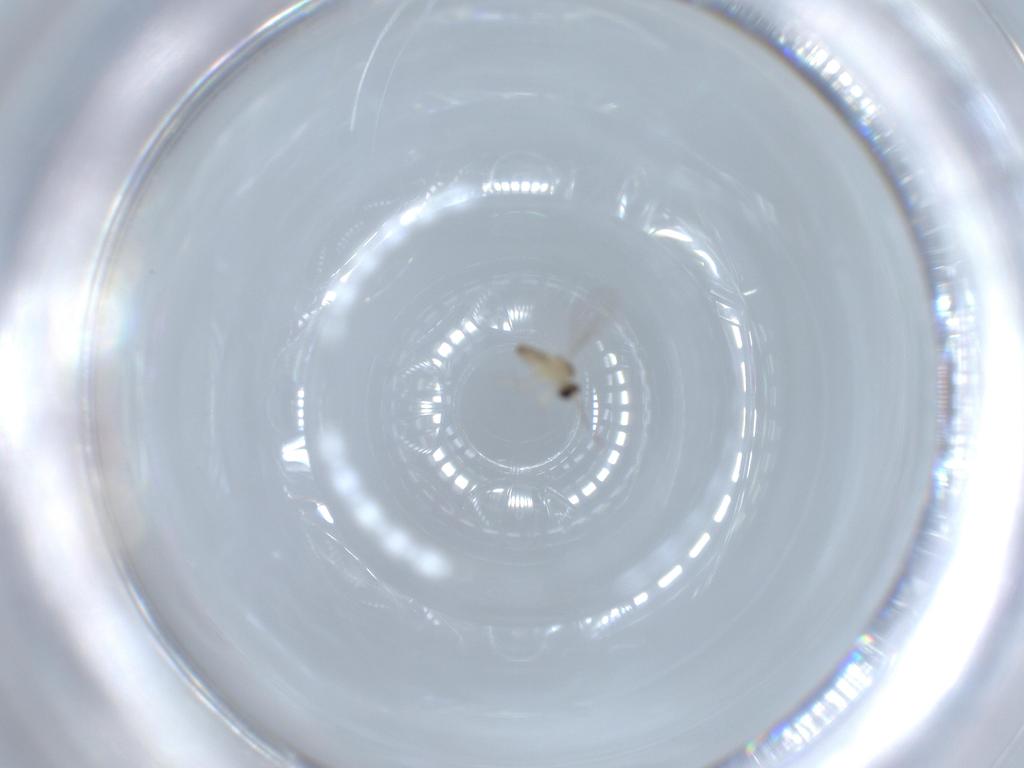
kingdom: Animalia
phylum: Arthropoda
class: Insecta
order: Diptera
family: Cecidomyiidae
